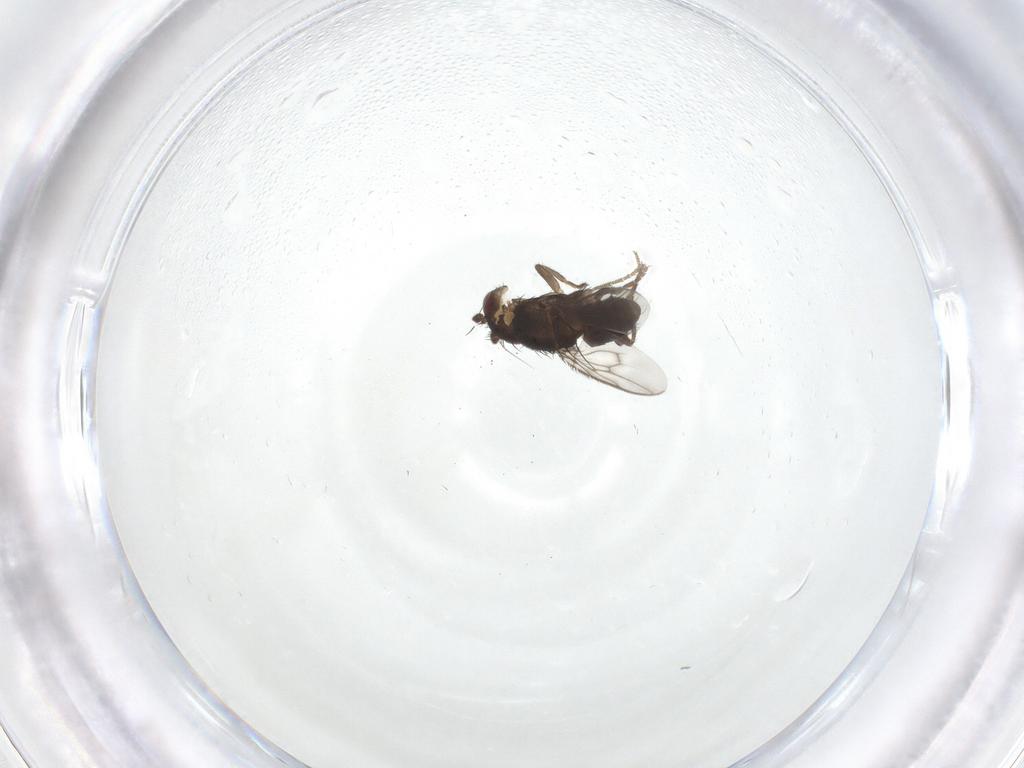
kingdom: Animalia
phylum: Arthropoda
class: Insecta
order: Diptera
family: Sphaeroceridae
